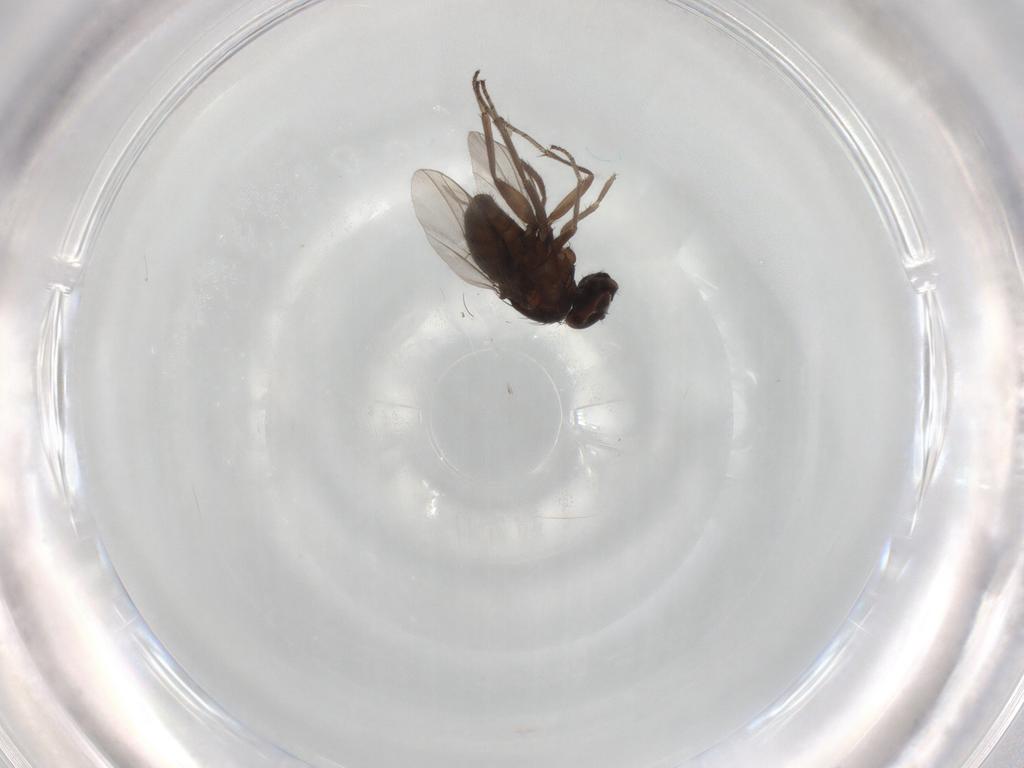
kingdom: Animalia
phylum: Arthropoda
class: Insecta
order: Diptera
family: Dolichopodidae
